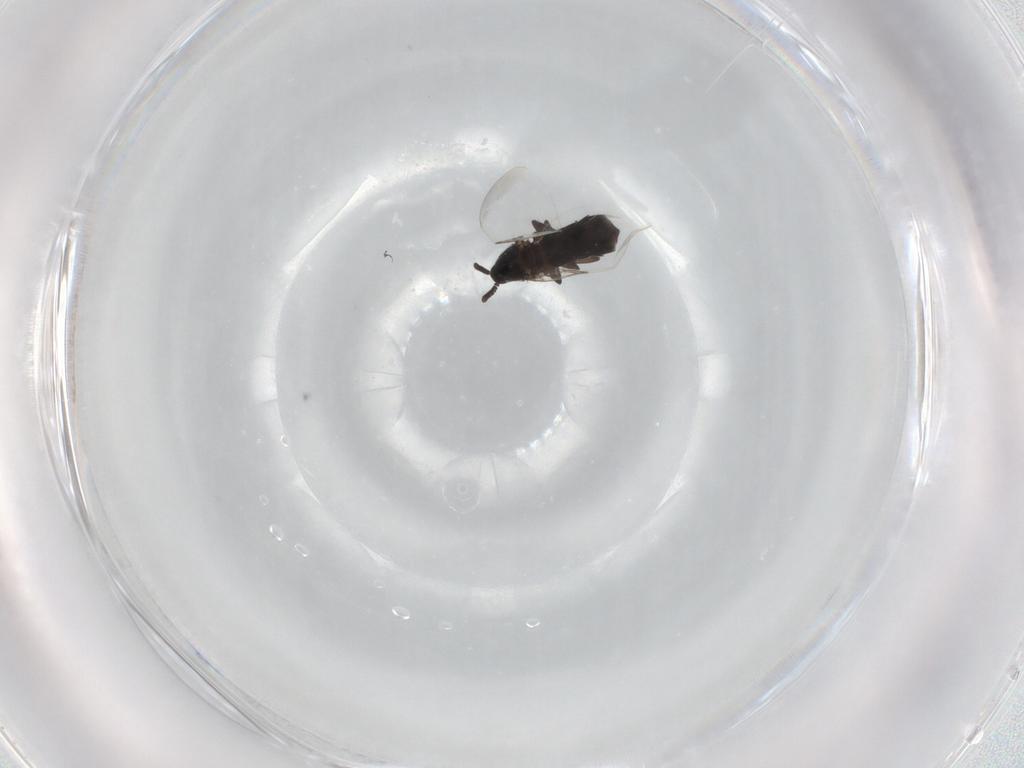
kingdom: Animalia
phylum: Arthropoda
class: Insecta
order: Diptera
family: Scatopsidae
